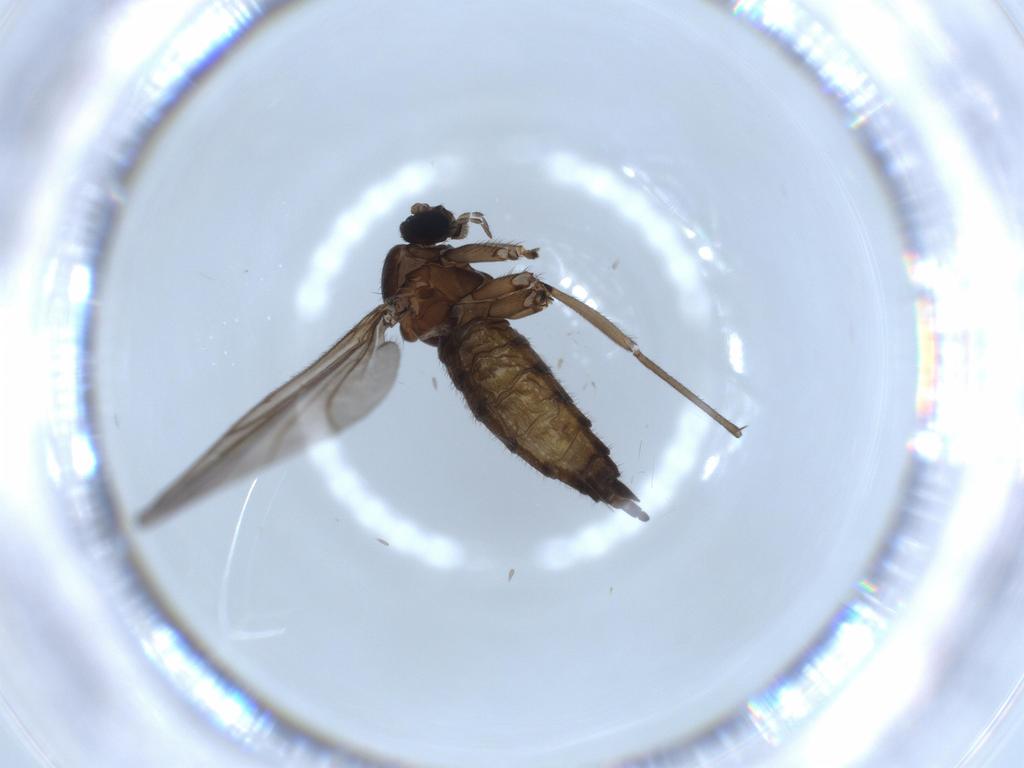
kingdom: Animalia
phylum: Arthropoda
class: Insecta
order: Diptera
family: Sciaridae
